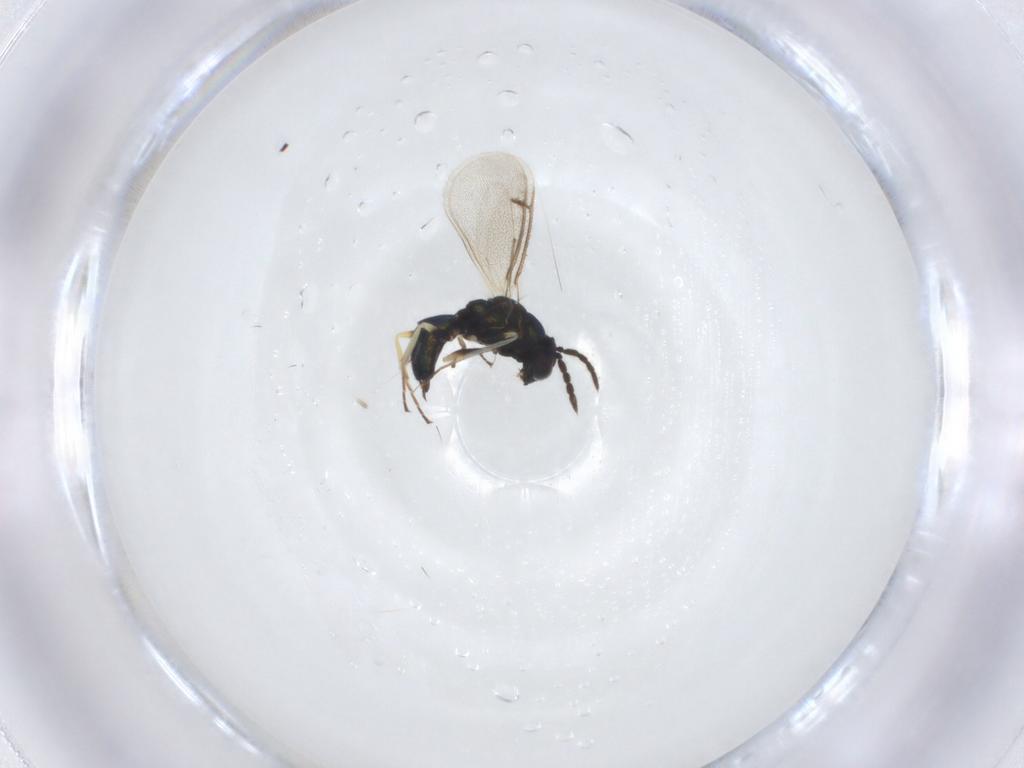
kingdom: Animalia
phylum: Arthropoda
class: Insecta
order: Hymenoptera
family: Eulophidae
